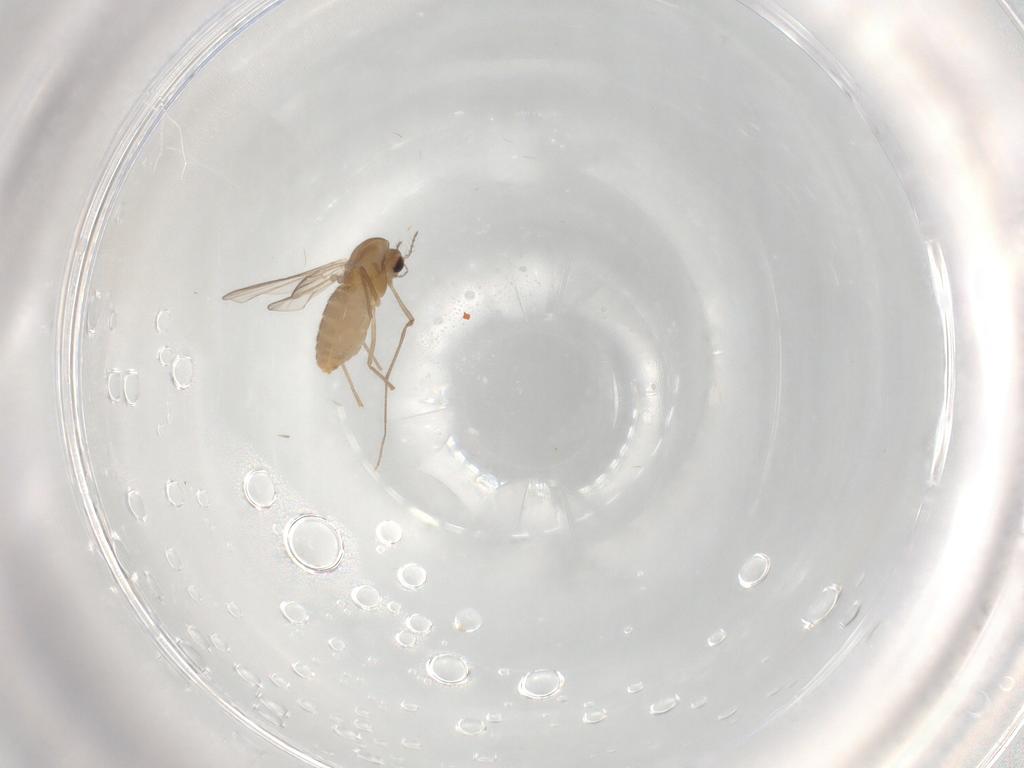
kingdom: Animalia
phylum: Arthropoda
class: Insecta
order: Diptera
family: Cecidomyiidae
